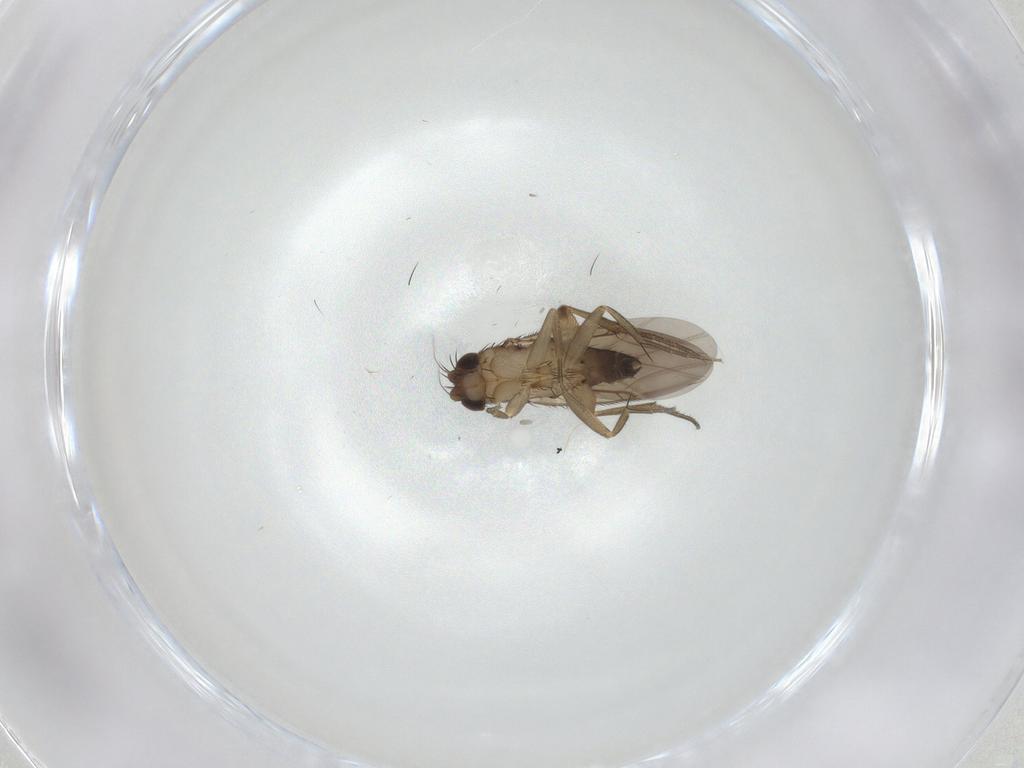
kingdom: Animalia
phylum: Arthropoda
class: Insecta
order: Diptera
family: Phoridae
